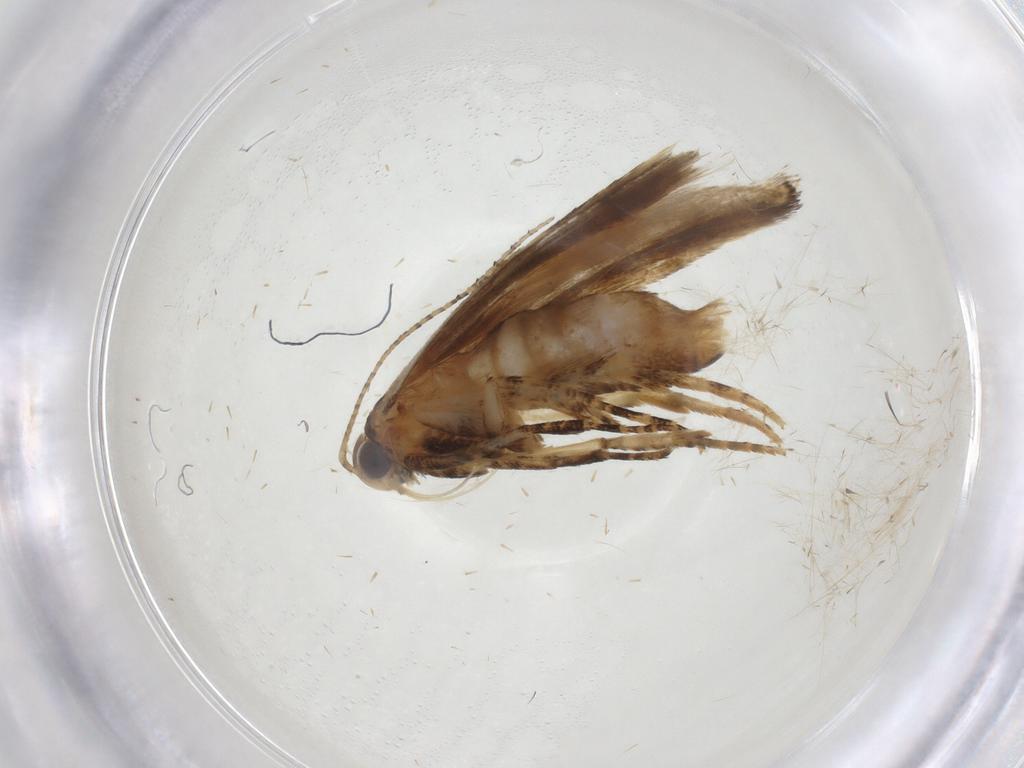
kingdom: Animalia
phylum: Arthropoda
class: Insecta
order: Lepidoptera
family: Gelechiidae
